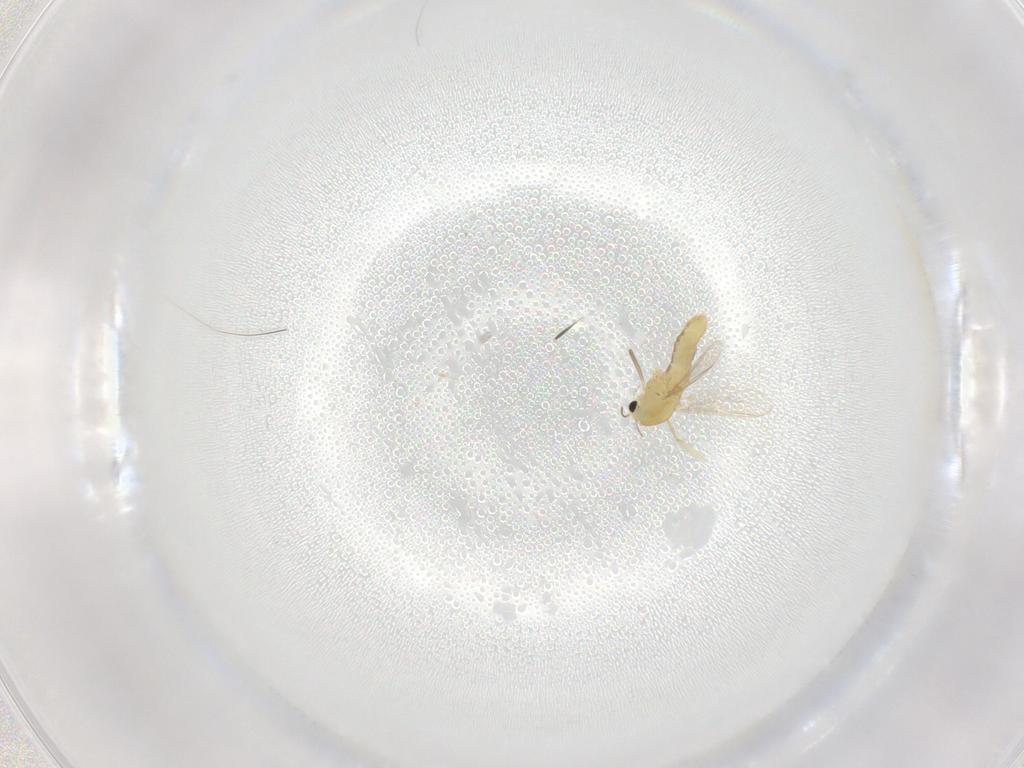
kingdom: Animalia
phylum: Arthropoda
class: Insecta
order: Diptera
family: Chironomidae
